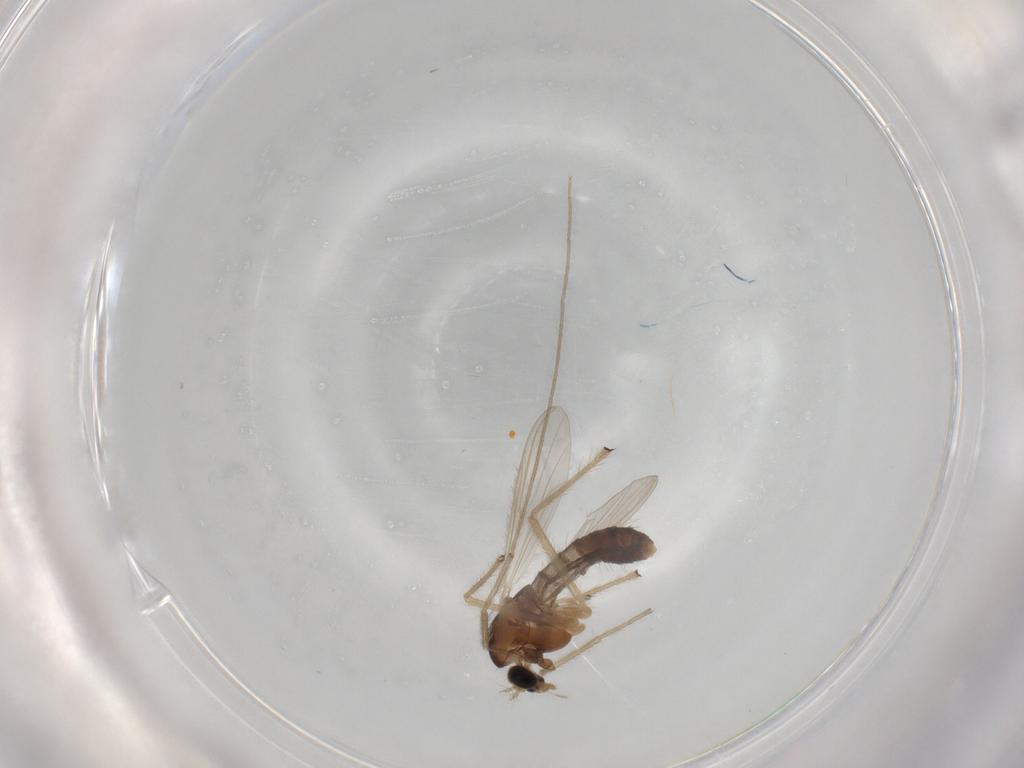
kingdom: Animalia
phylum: Arthropoda
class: Insecta
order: Diptera
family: Chironomidae
